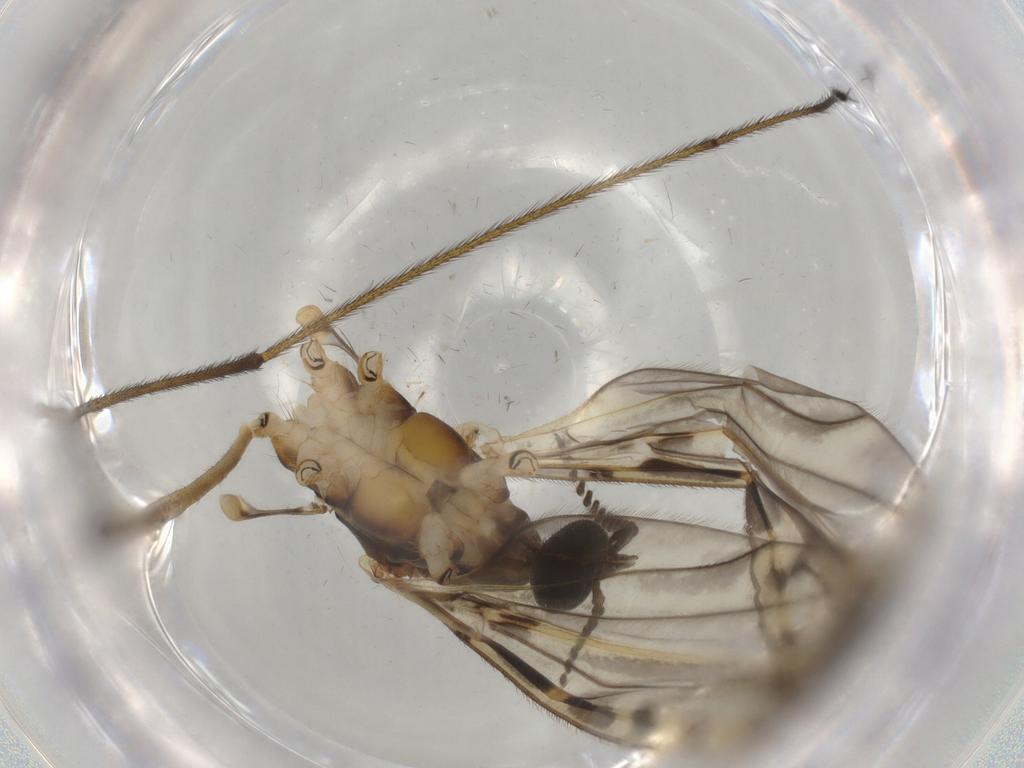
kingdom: Animalia
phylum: Arthropoda
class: Insecta
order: Diptera
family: Limoniidae
